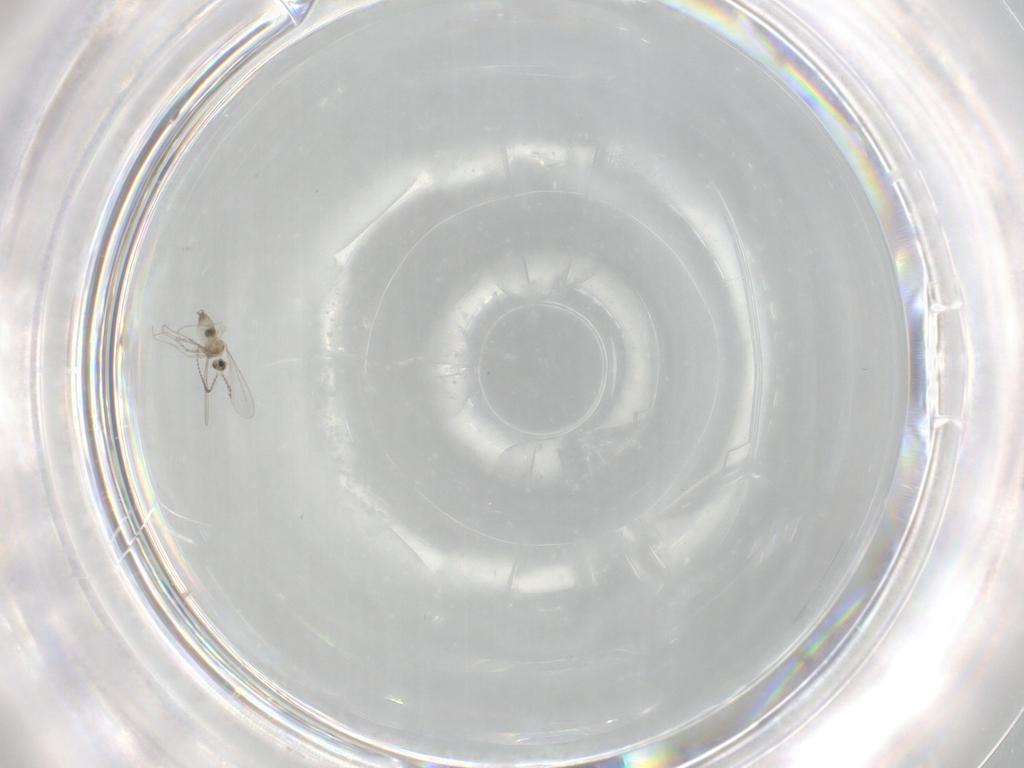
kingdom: Animalia
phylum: Arthropoda
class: Insecta
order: Diptera
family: Cecidomyiidae
